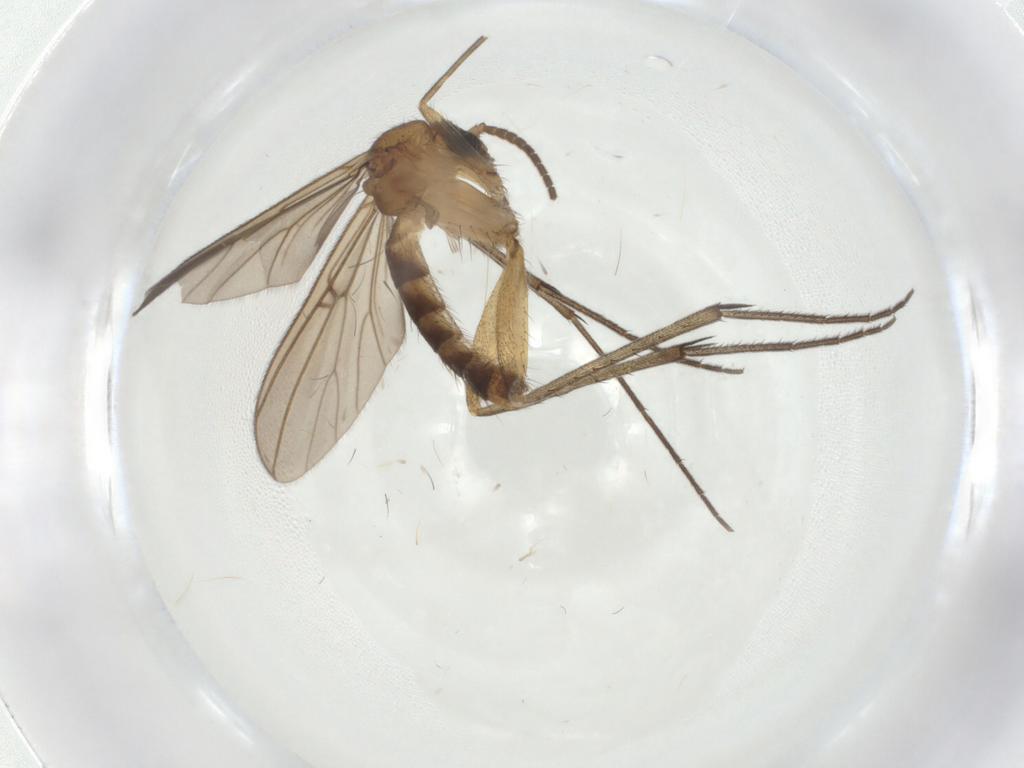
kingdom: Animalia
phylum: Arthropoda
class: Insecta
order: Diptera
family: Mycetophilidae
